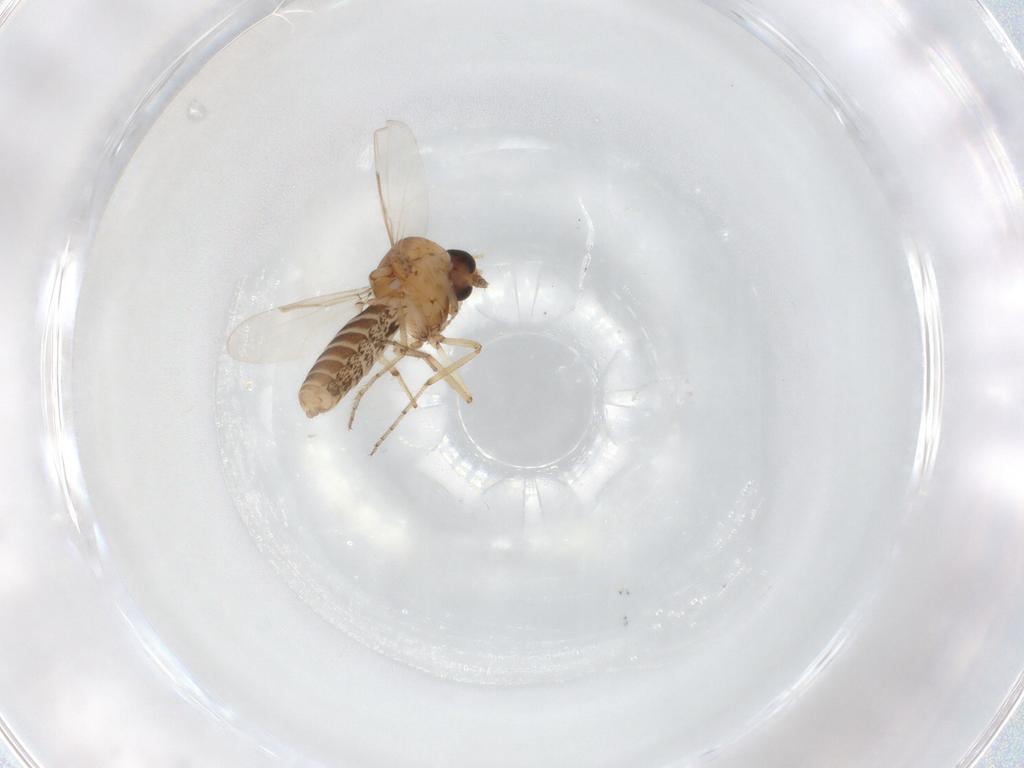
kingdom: Animalia
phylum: Arthropoda
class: Insecta
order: Diptera
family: Ceratopogonidae
